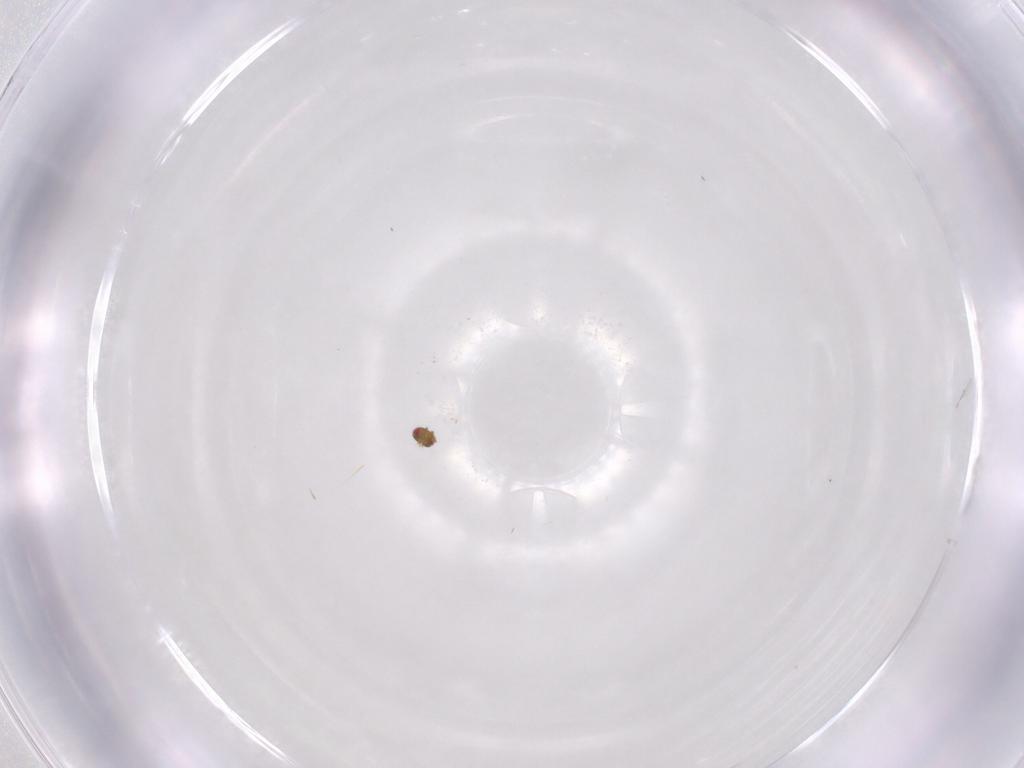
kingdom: Animalia
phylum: Arthropoda
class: Insecta
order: Hymenoptera
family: Trichogrammatidae
